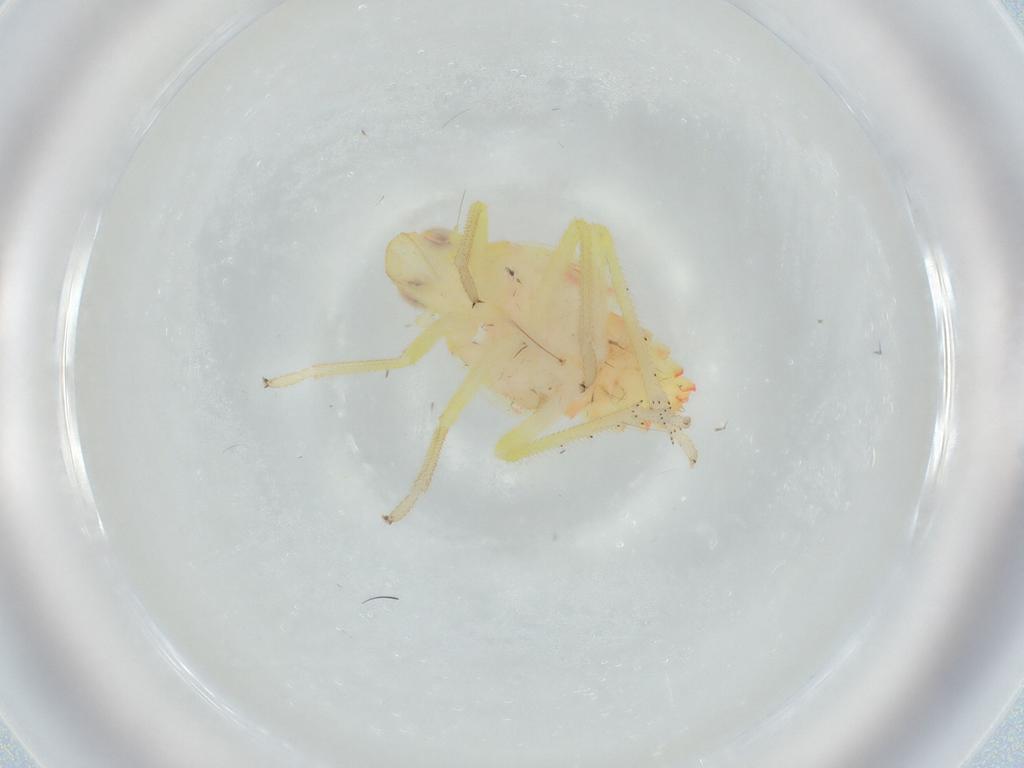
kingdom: Animalia
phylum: Arthropoda
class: Insecta
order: Hemiptera
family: Tropiduchidae
